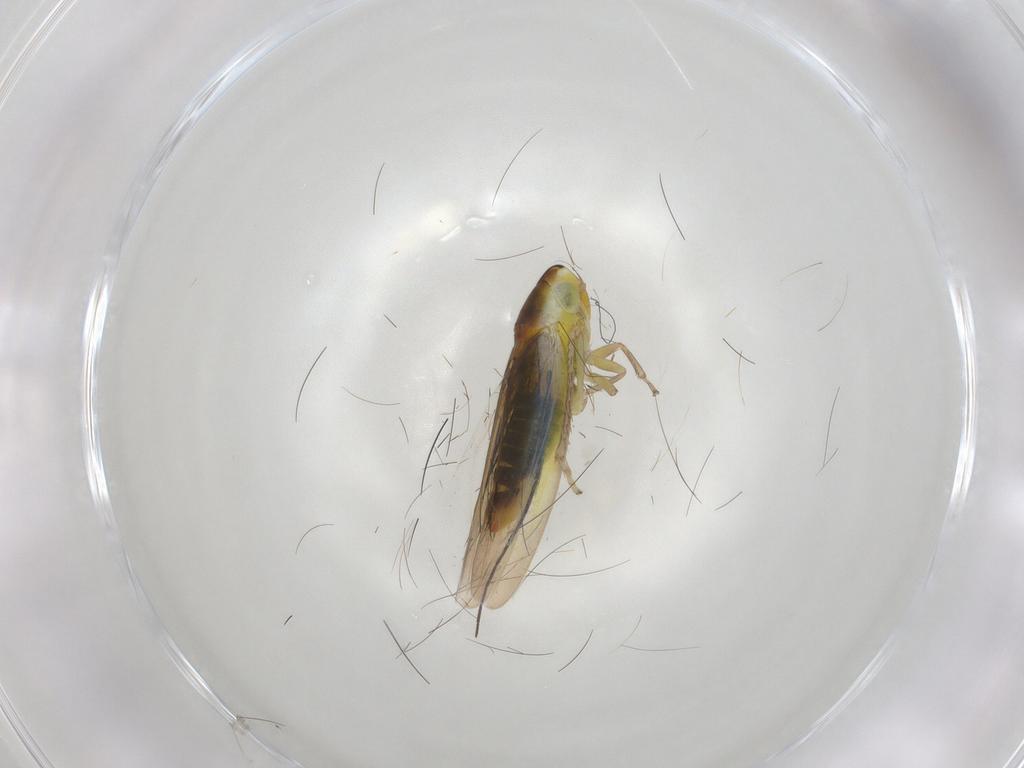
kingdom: Animalia
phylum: Arthropoda
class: Insecta
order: Hemiptera
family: Cicadellidae
